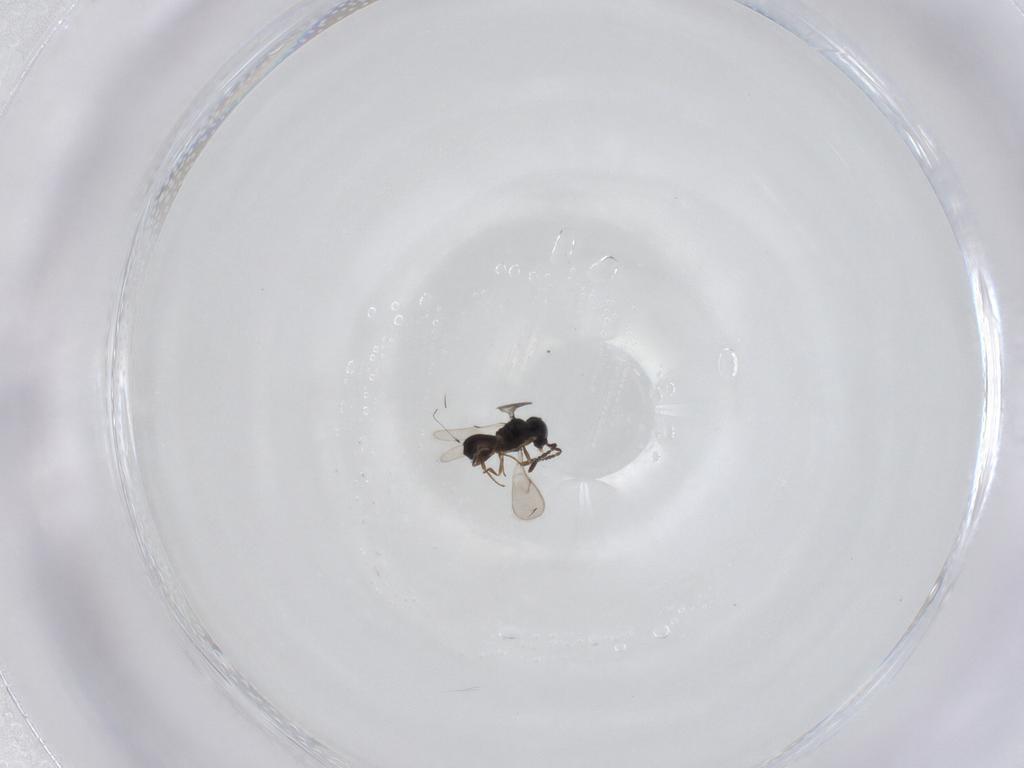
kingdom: Animalia
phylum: Arthropoda
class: Insecta
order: Hymenoptera
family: Scelionidae
